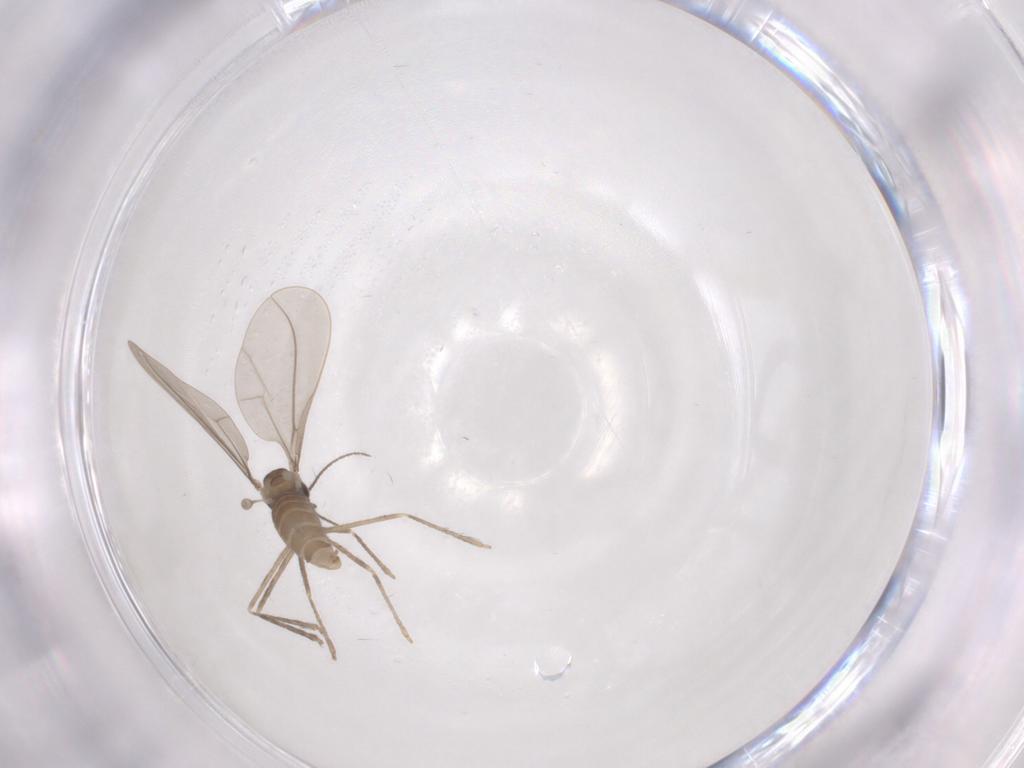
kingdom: Animalia
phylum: Arthropoda
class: Insecta
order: Diptera
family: Cecidomyiidae
